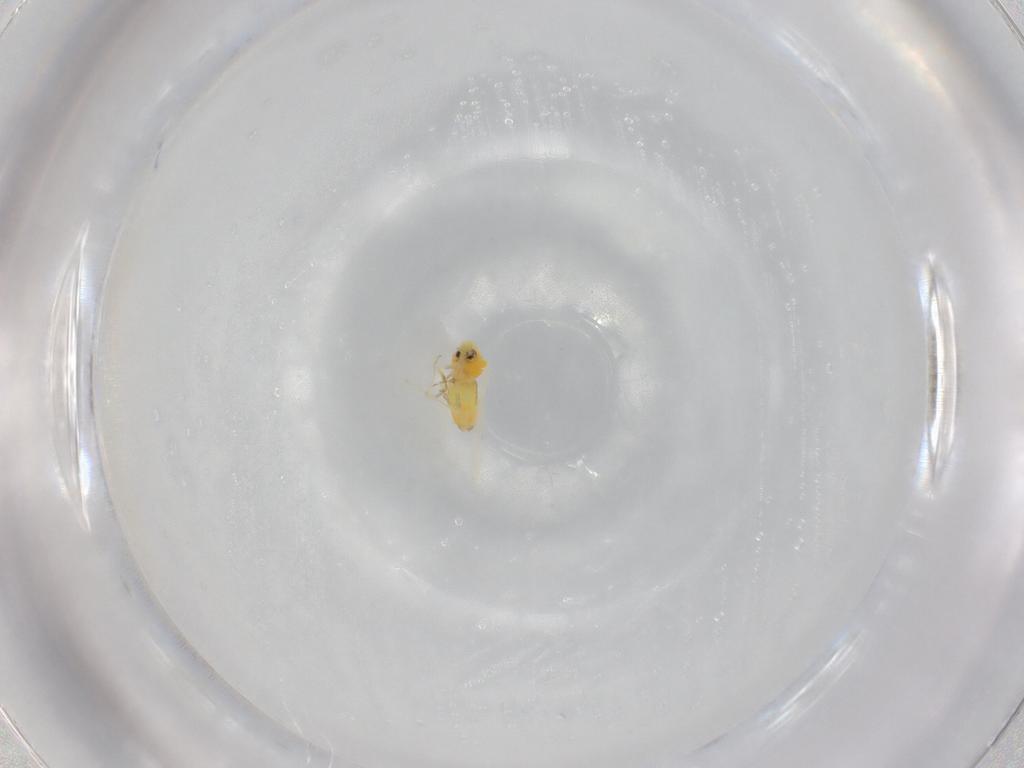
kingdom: Animalia
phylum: Arthropoda
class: Insecta
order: Hemiptera
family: Aleyrodidae
